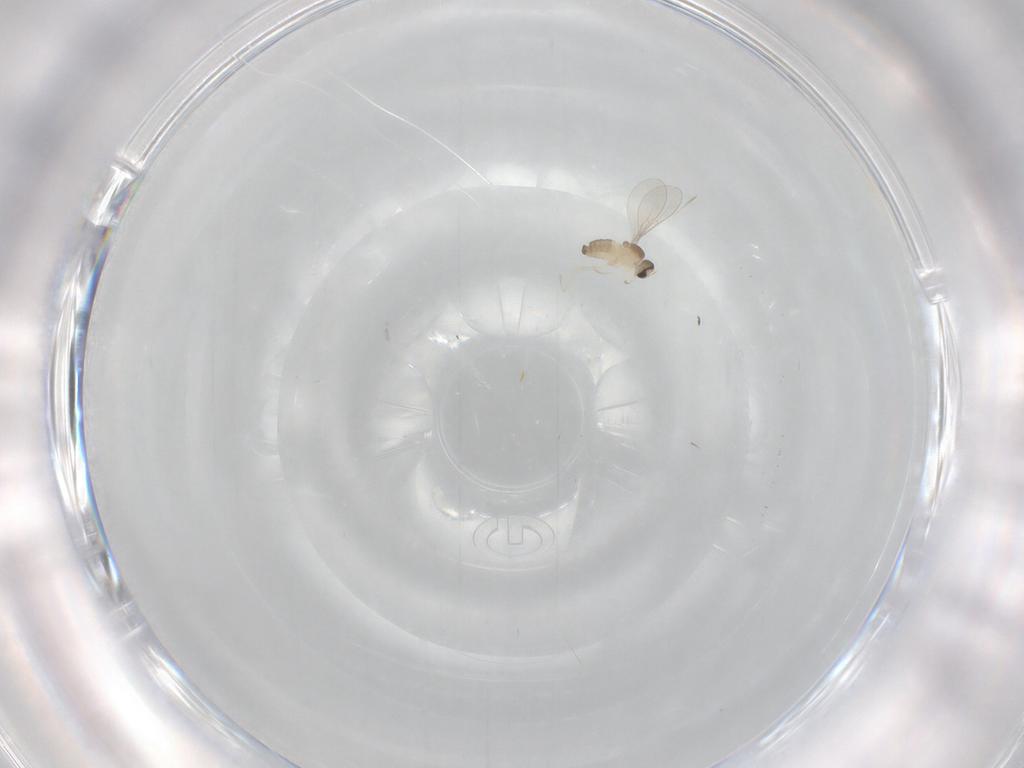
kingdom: Animalia
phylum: Arthropoda
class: Insecta
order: Diptera
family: Cecidomyiidae
